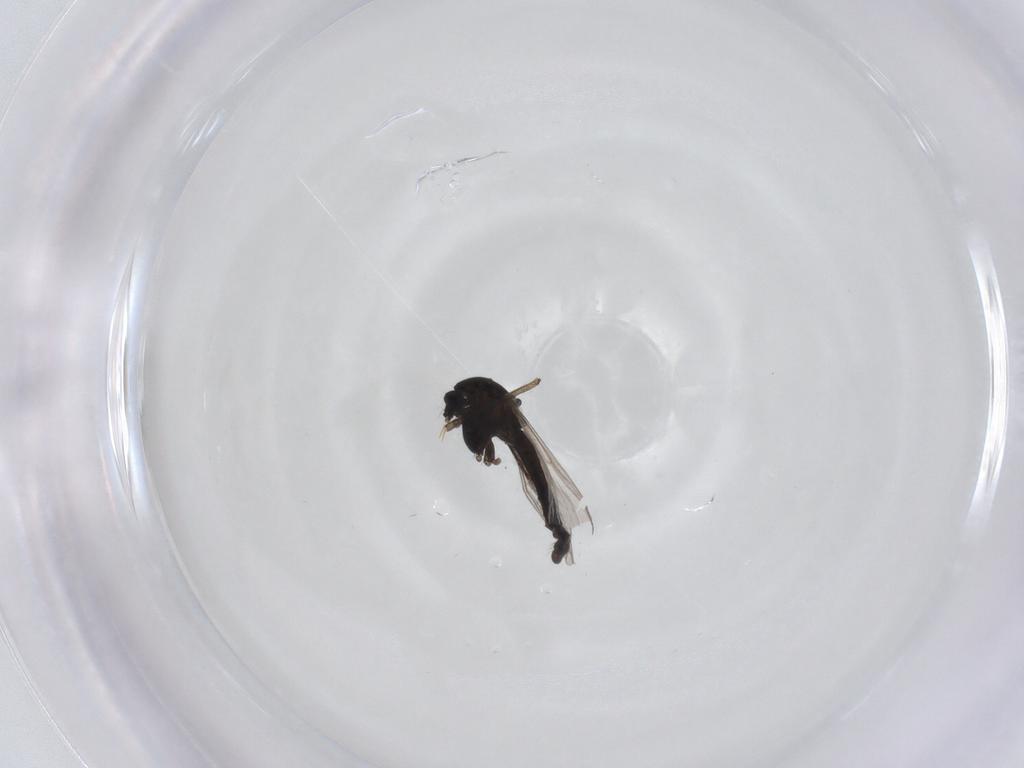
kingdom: Animalia
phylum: Arthropoda
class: Insecta
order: Diptera
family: Sciaridae
